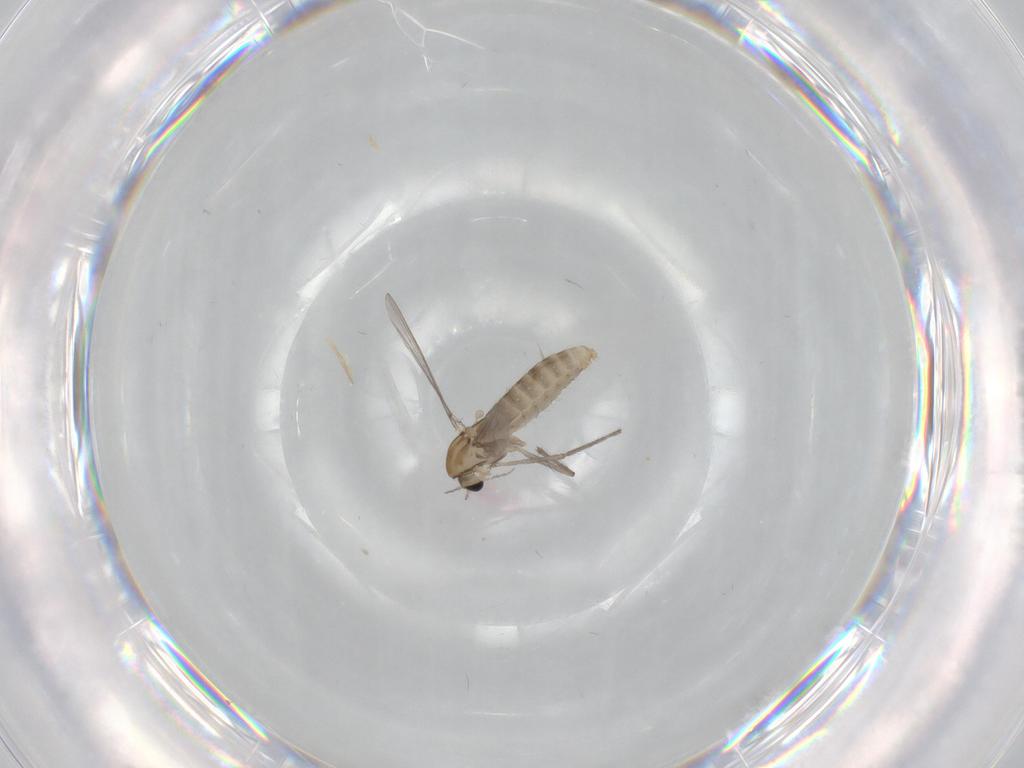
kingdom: Animalia
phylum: Arthropoda
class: Insecta
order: Diptera
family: Chironomidae
